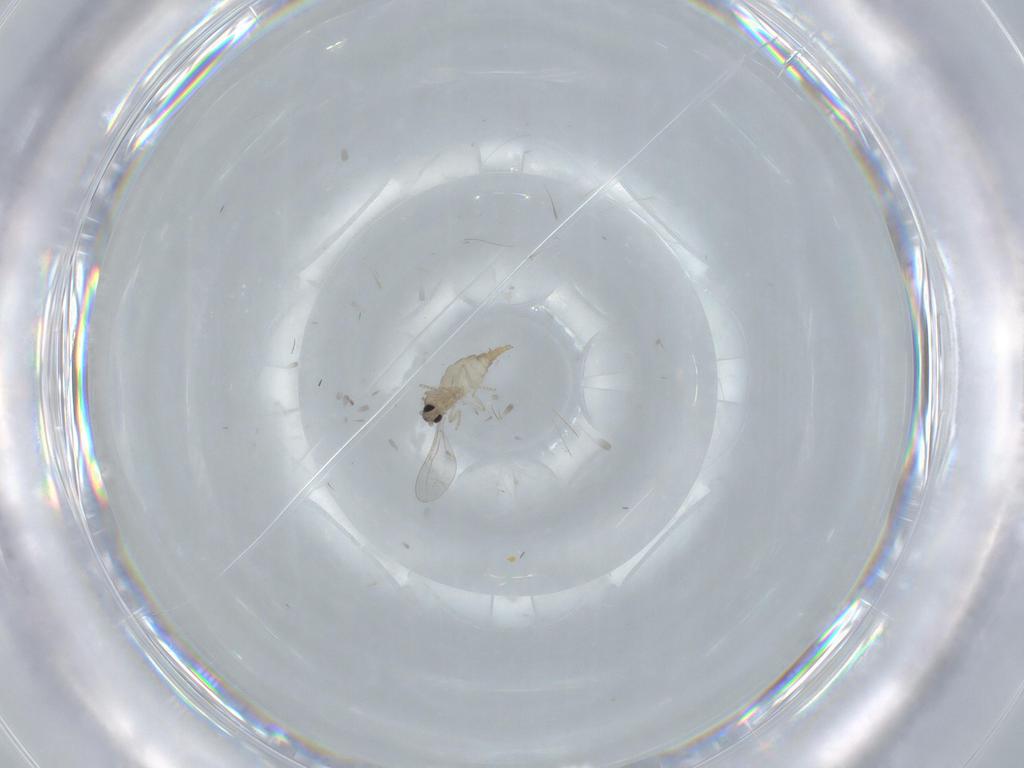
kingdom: Animalia
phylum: Arthropoda
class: Insecta
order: Diptera
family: Cecidomyiidae
